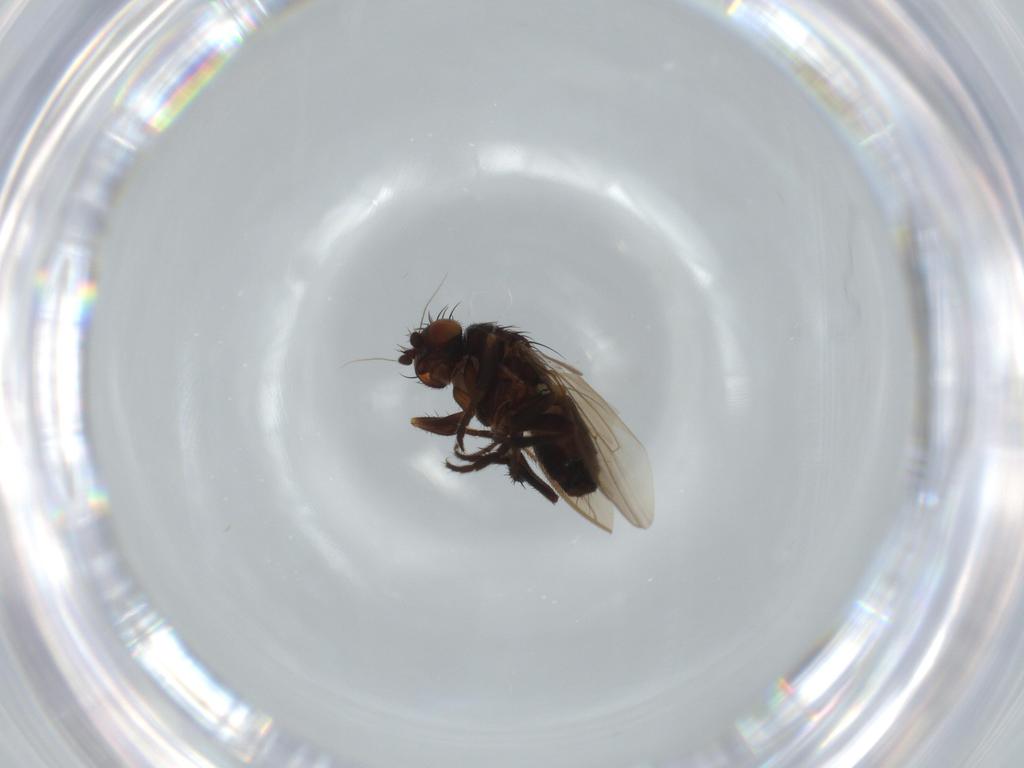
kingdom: Animalia
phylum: Arthropoda
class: Insecta
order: Diptera
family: Sphaeroceridae
